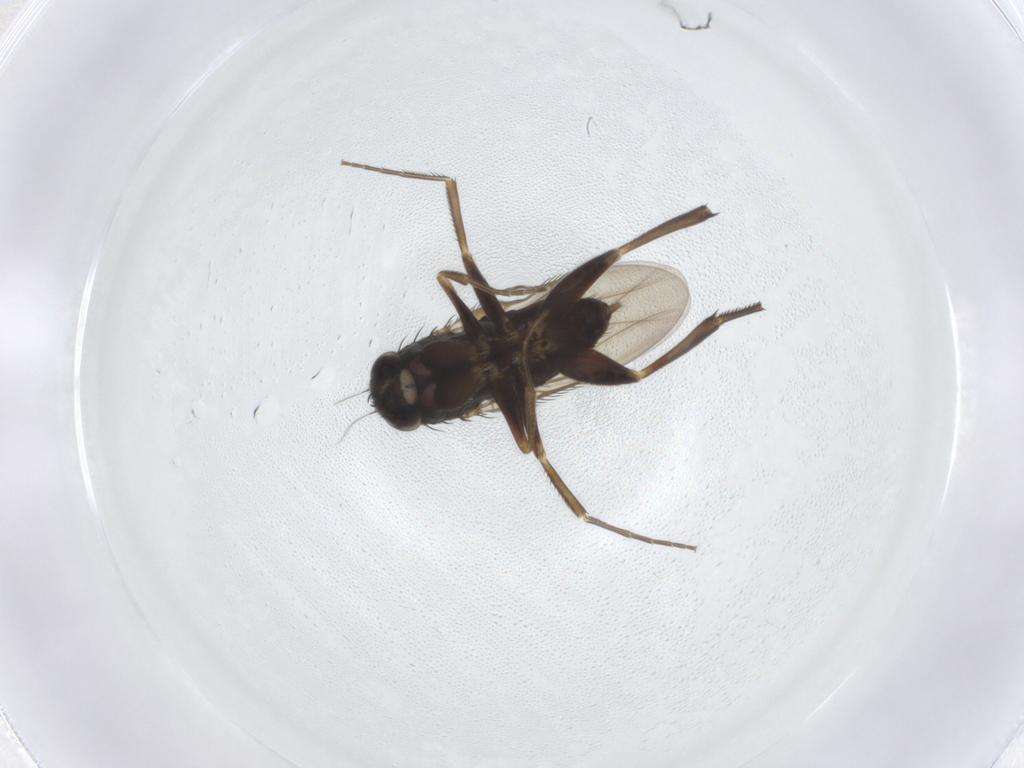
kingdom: Animalia
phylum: Arthropoda
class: Insecta
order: Diptera
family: Phoridae
